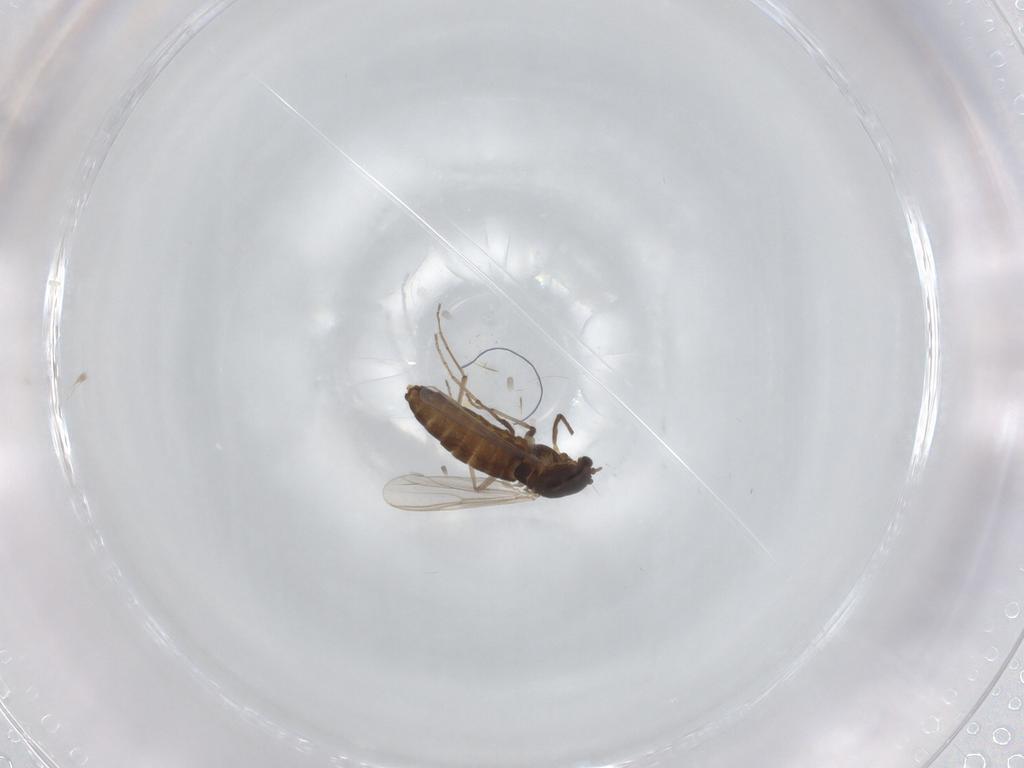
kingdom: Animalia
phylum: Arthropoda
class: Insecta
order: Diptera
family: Chironomidae
